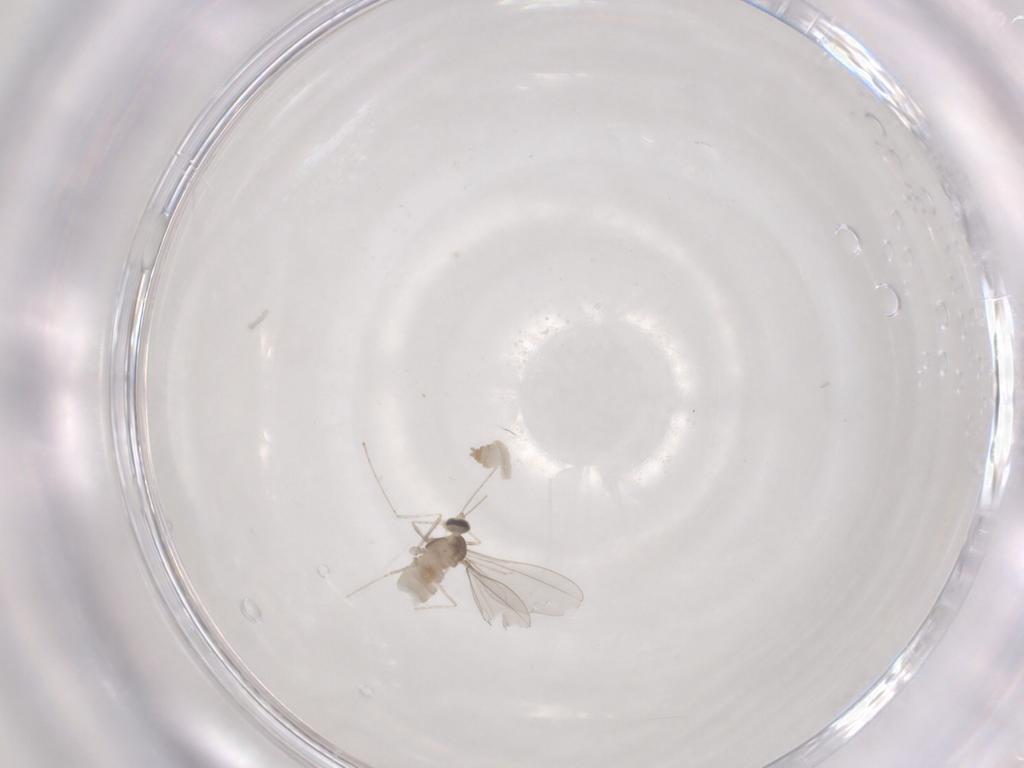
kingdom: Animalia
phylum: Arthropoda
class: Insecta
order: Diptera
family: Cecidomyiidae
